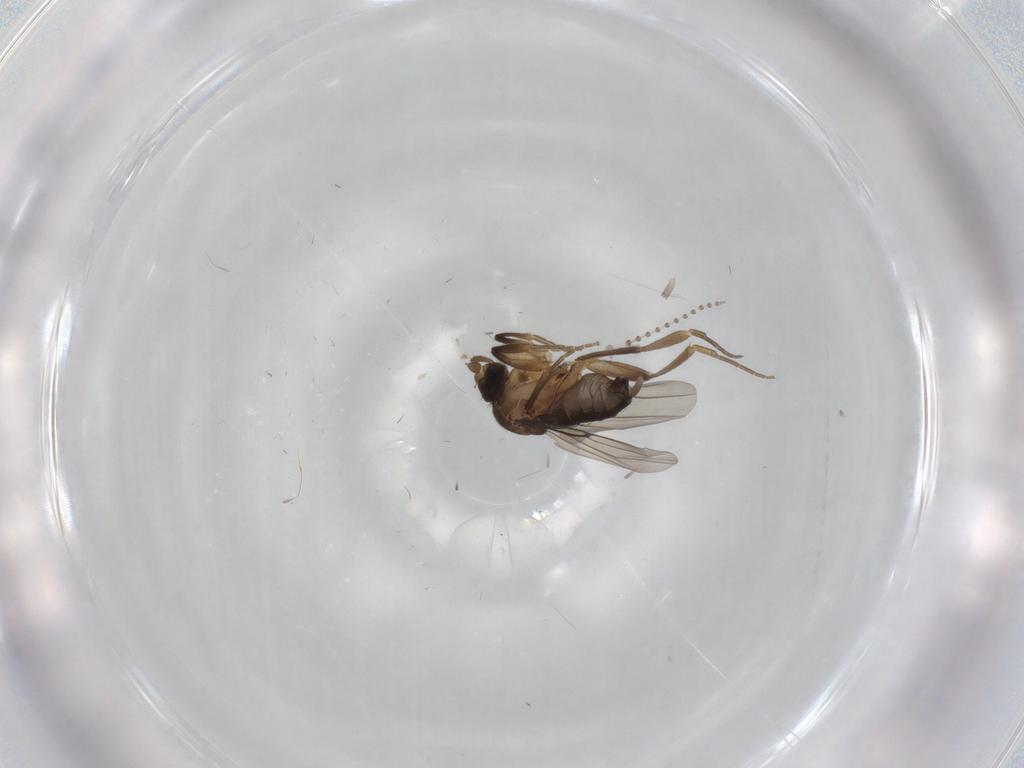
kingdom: Animalia
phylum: Arthropoda
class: Insecta
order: Diptera
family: Phoridae
